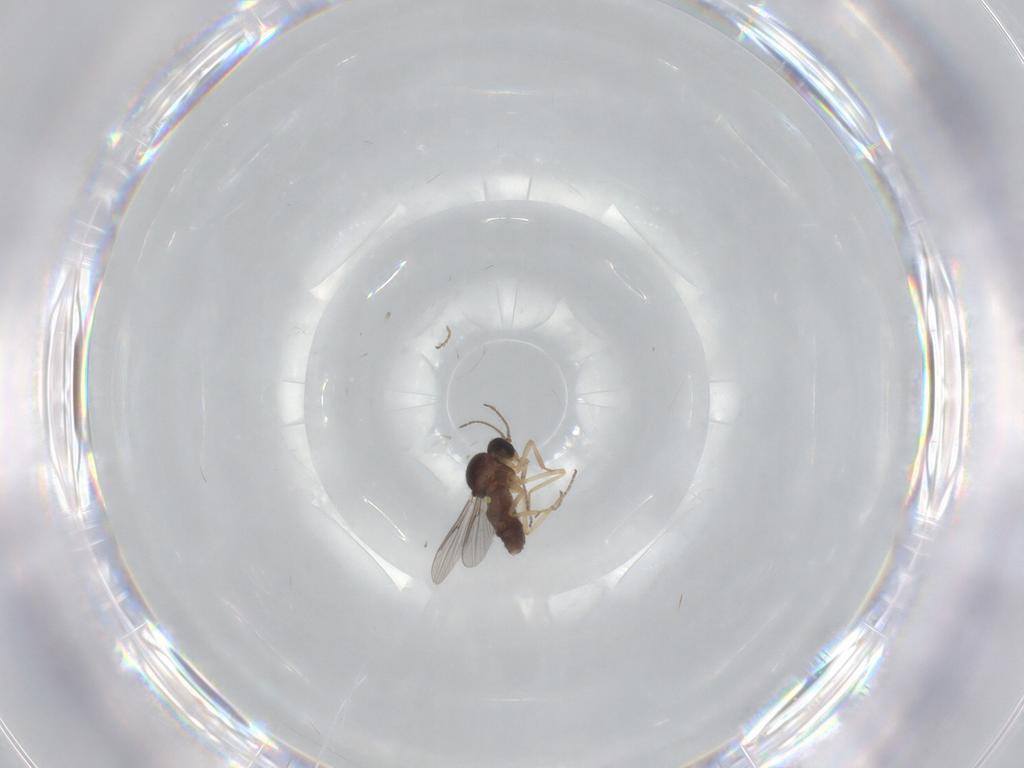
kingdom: Animalia
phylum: Arthropoda
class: Insecta
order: Diptera
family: Ceratopogonidae
